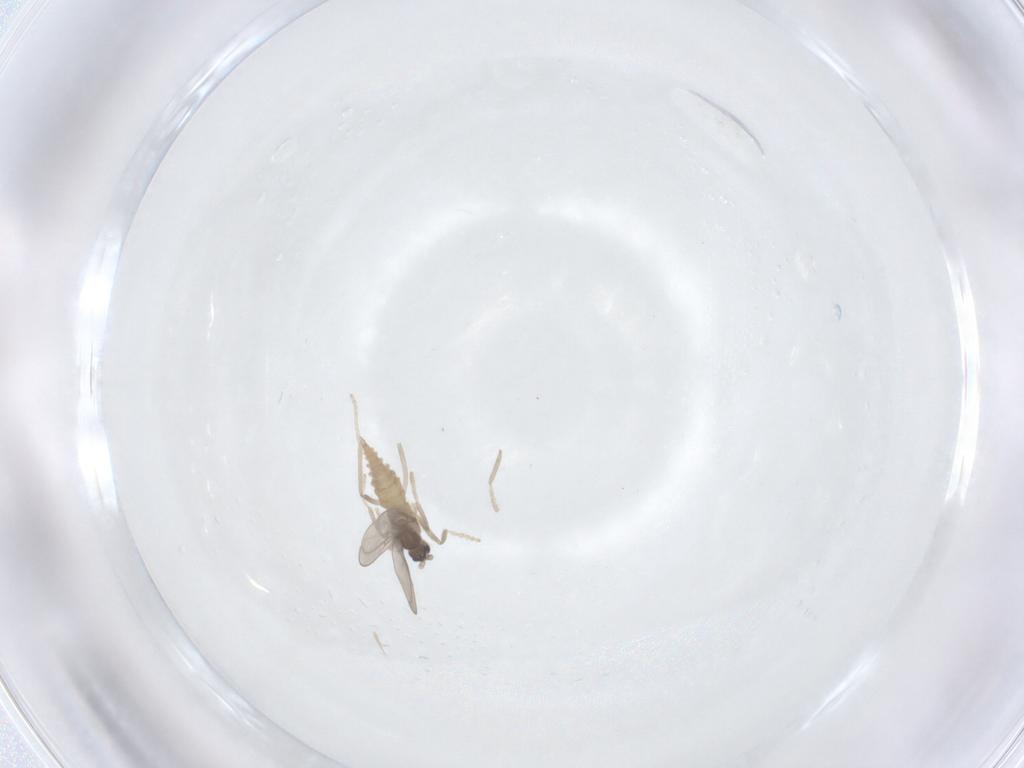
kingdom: Animalia
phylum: Arthropoda
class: Insecta
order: Diptera
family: Cecidomyiidae
